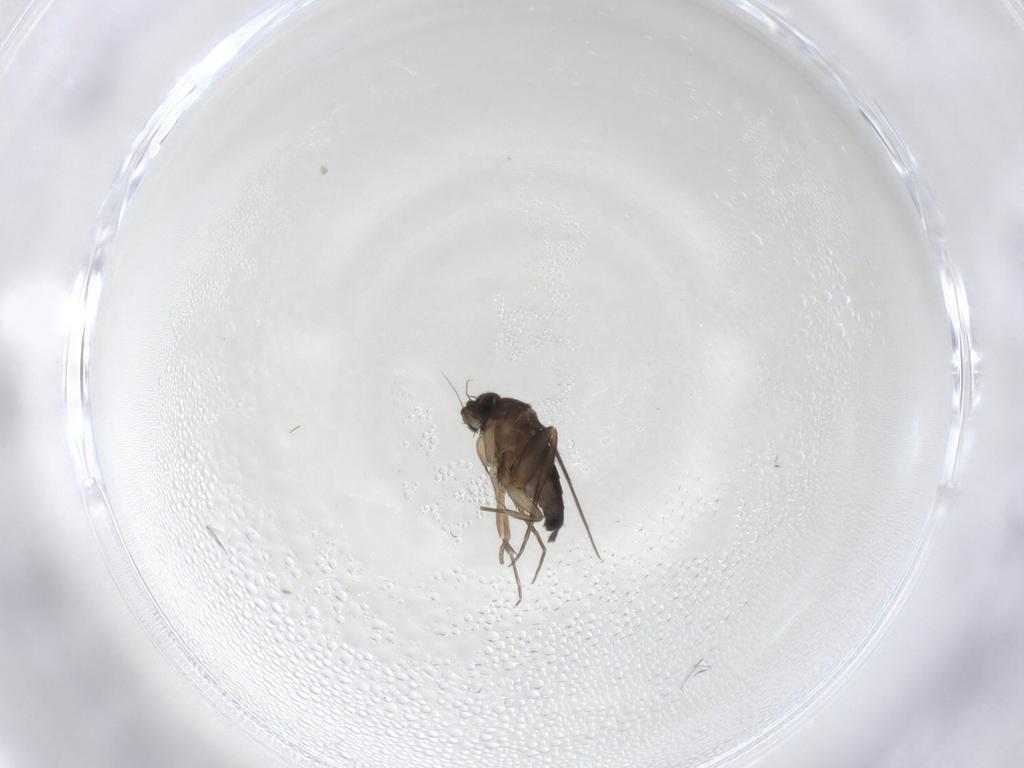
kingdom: Animalia
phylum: Arthropoda
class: Insecta
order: Diptera
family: Phoridae
